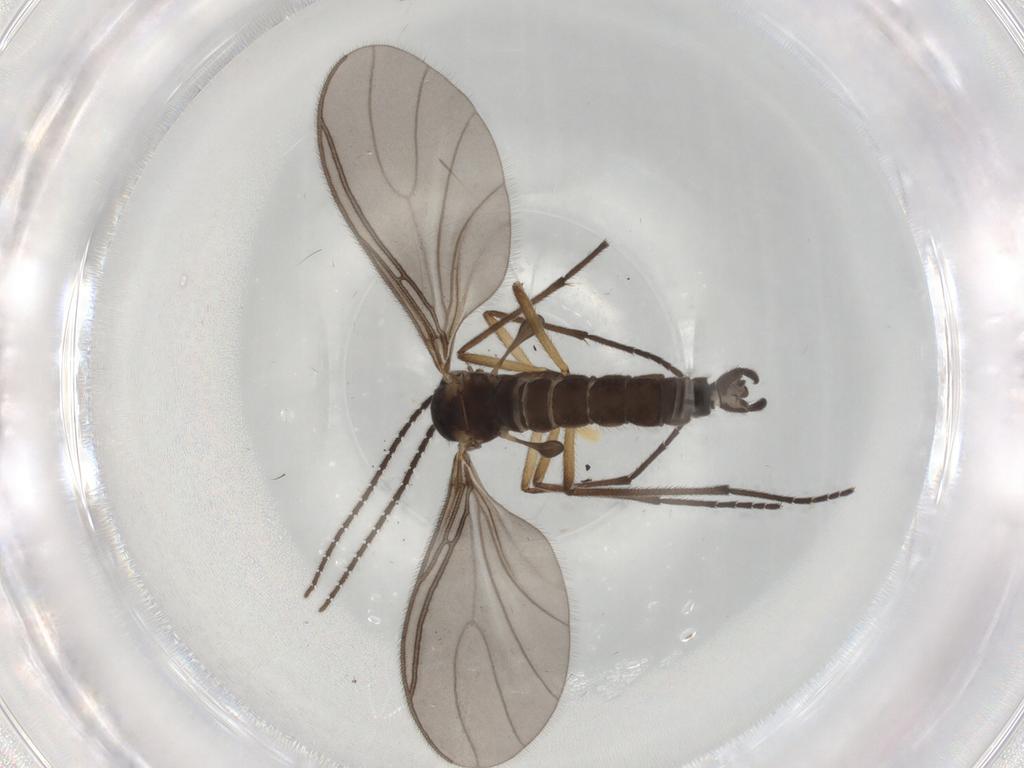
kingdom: Animalia
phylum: Arthropoda
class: Insecta
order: Diptera
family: Sciaridae
